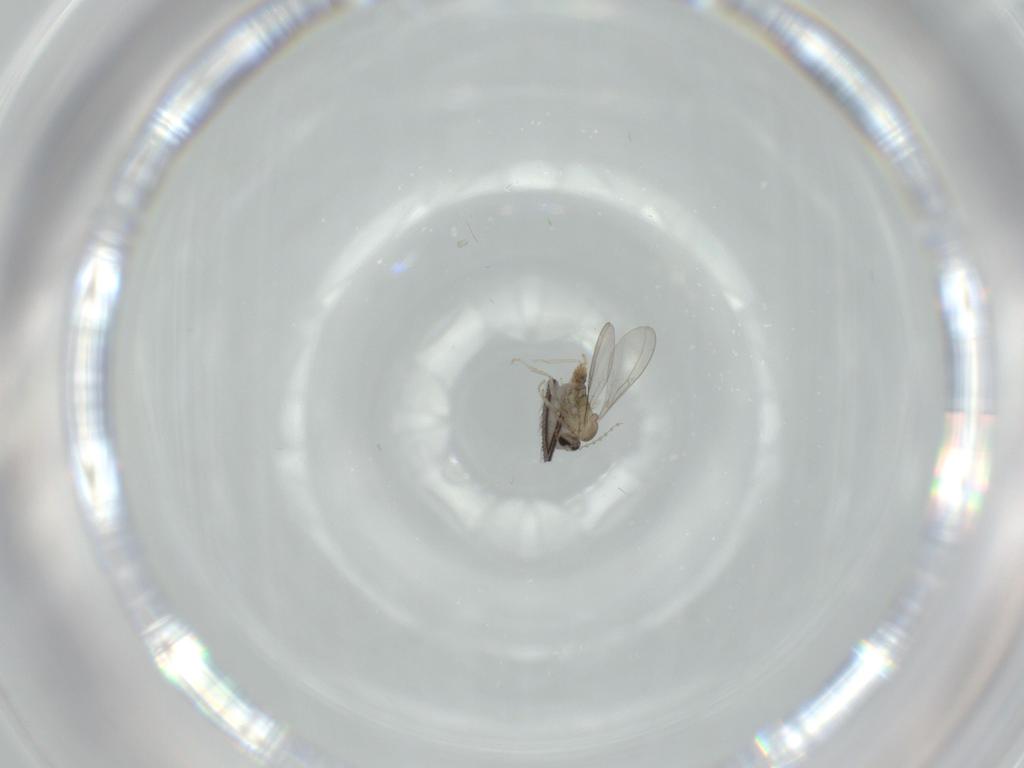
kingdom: Animalia
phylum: Arthropoda
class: Insecta
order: Diptera
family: Cecidomyiidae
